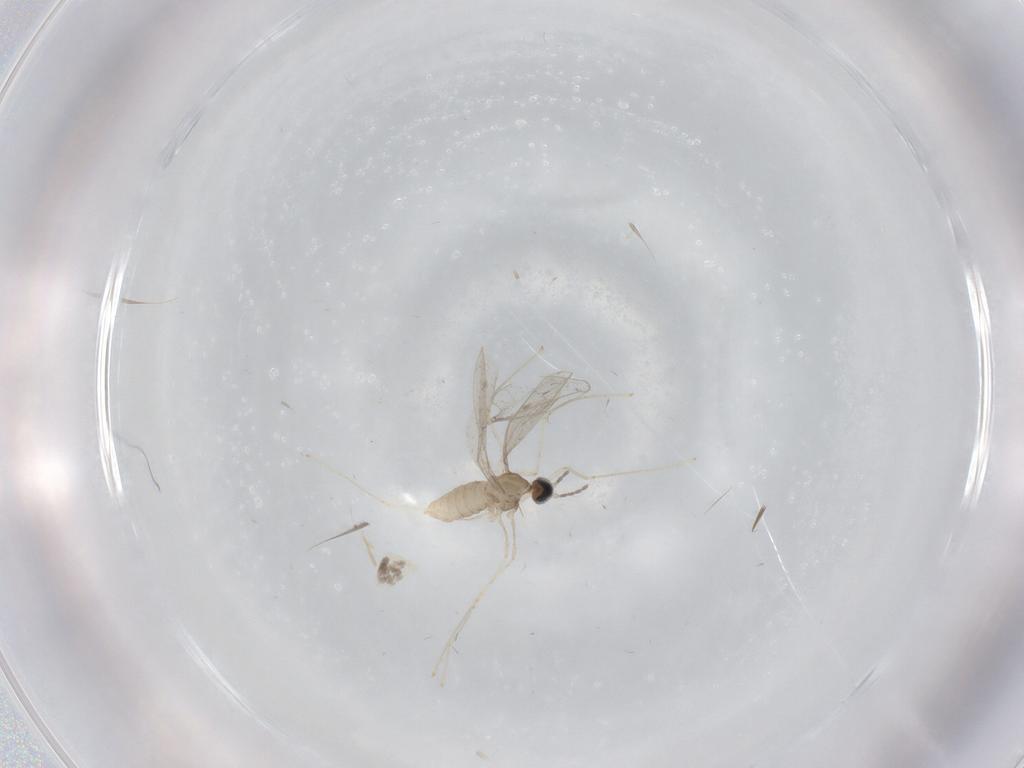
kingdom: Animalia
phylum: Arthropoda
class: Insecta
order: Diptera
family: Cecidomyiidae
